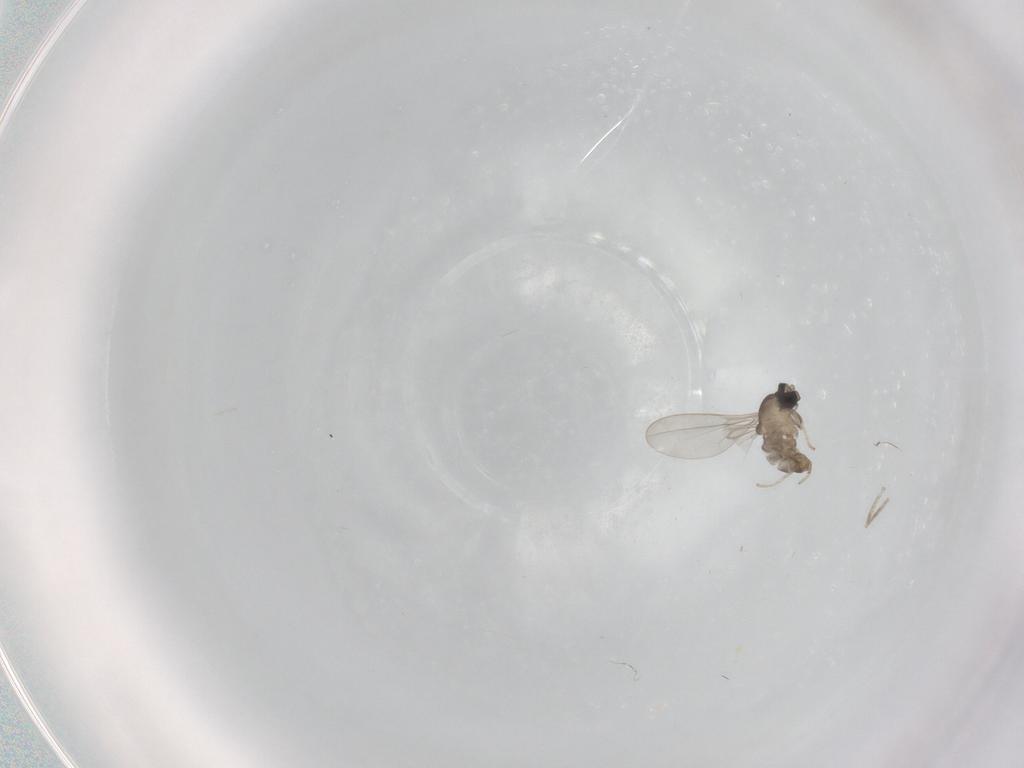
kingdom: Animalia
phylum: Arthropoda
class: Insecta
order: Diptera
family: Cecidomyiidae
